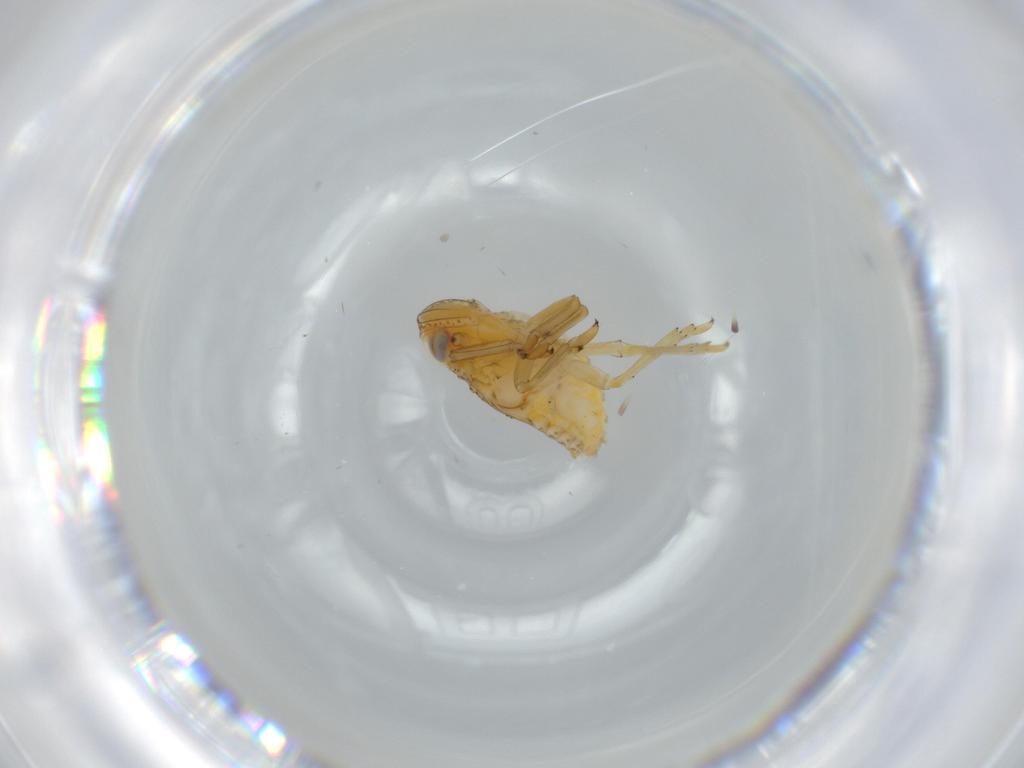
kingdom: Animalia
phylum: Arthropoda
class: Insecta
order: Hemiptera
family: Issidae
